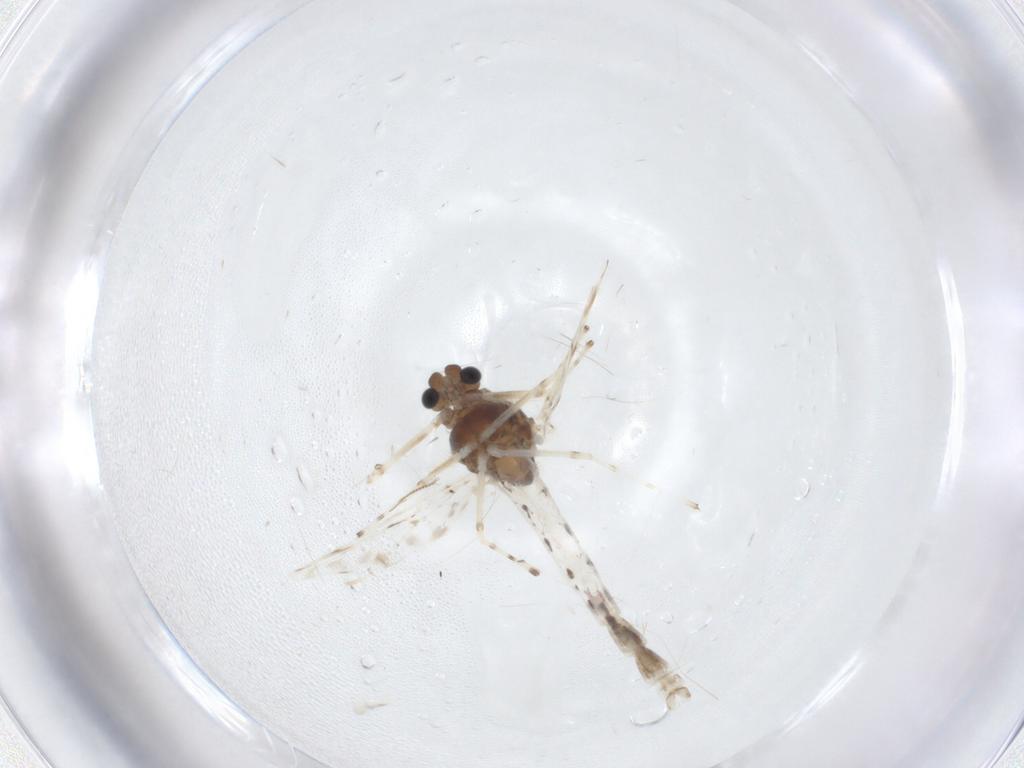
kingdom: Animalia
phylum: Arthropoda
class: Insecta
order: Diptera
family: Chironomidae
